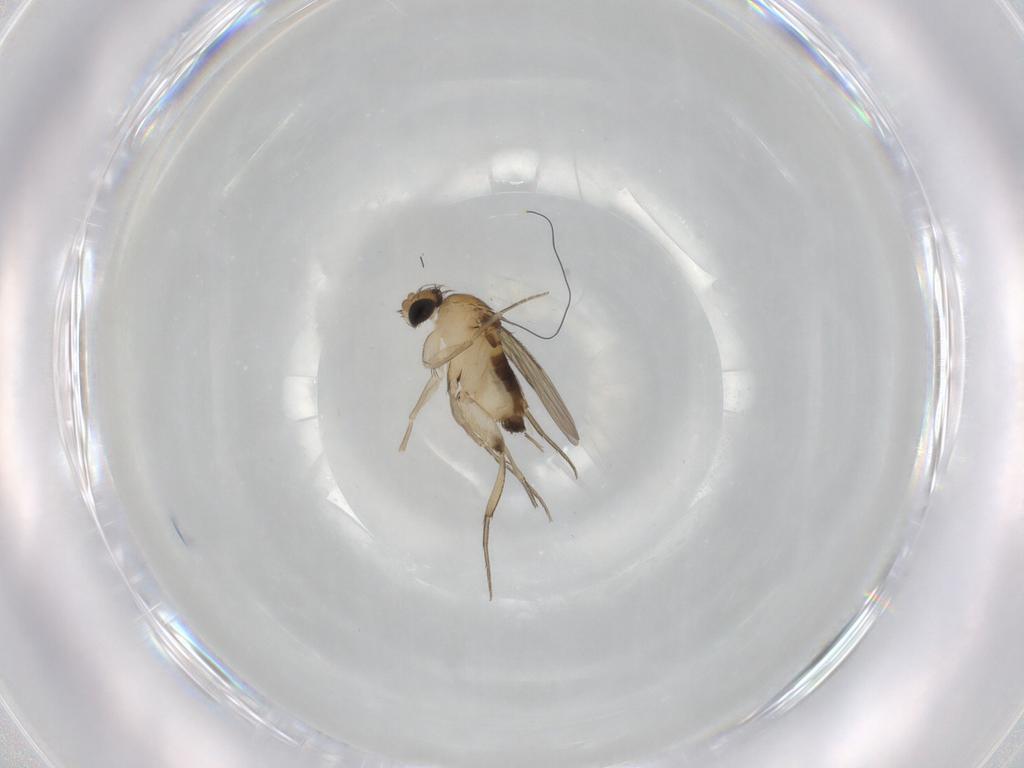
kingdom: Animalia
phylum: Arthropoda
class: Insecta
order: Diptera
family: Phoridae
